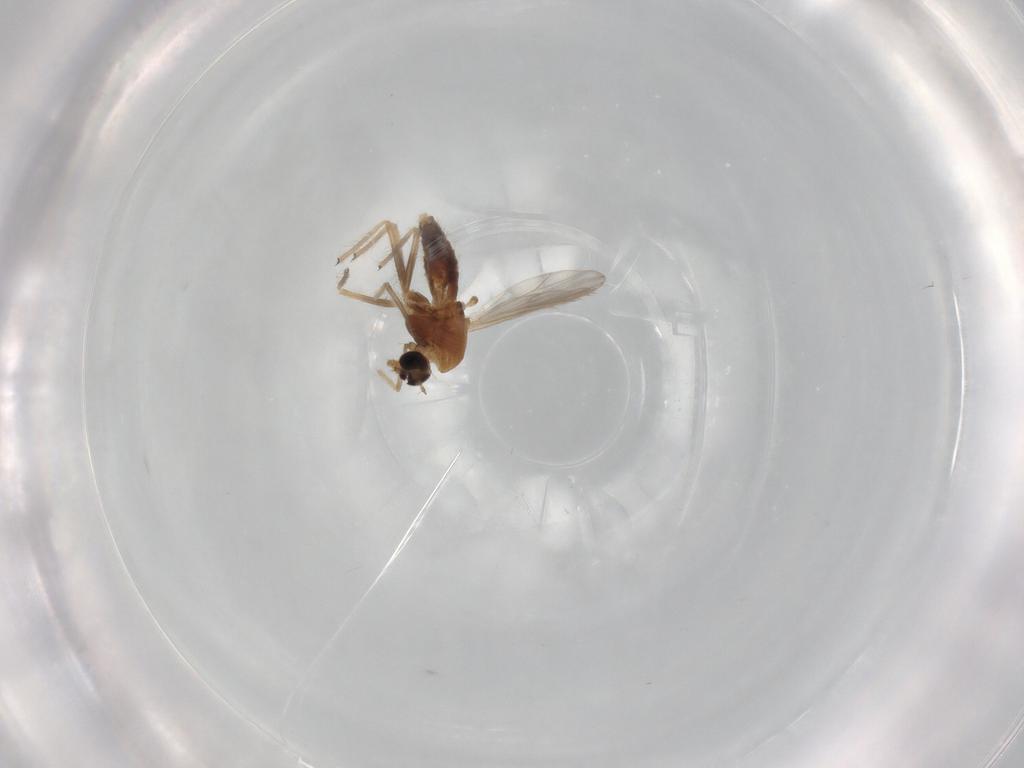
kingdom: Animalia
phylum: Arthropoda
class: Insecta
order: Diptera
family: Chironomidae
